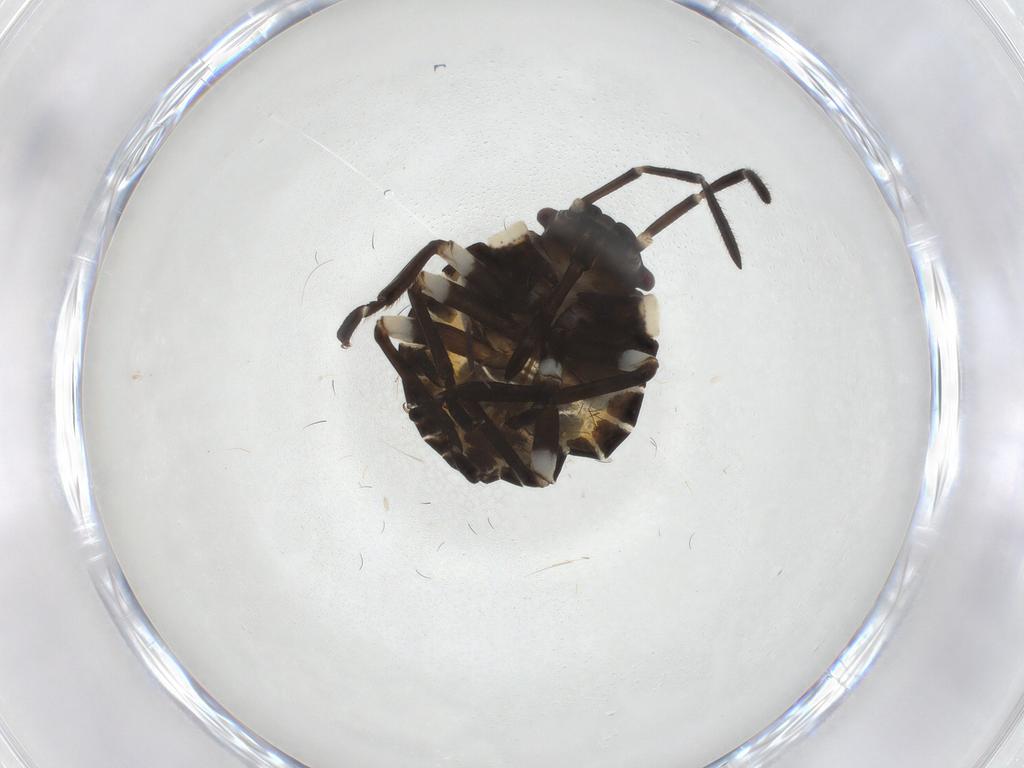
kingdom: Animalia
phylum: Arthropoda
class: Insecta
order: Hemiptera
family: Pentatomidae
